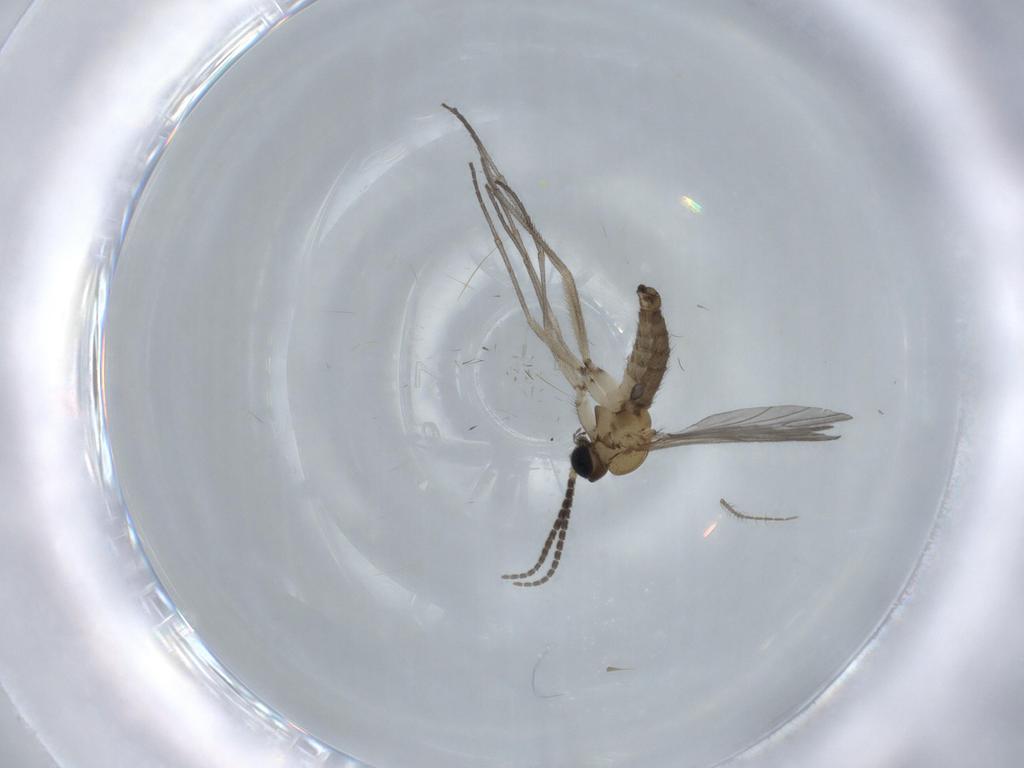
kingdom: Animalia
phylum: Arthropoda
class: Insecta
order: Diptera
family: Sciaridae
